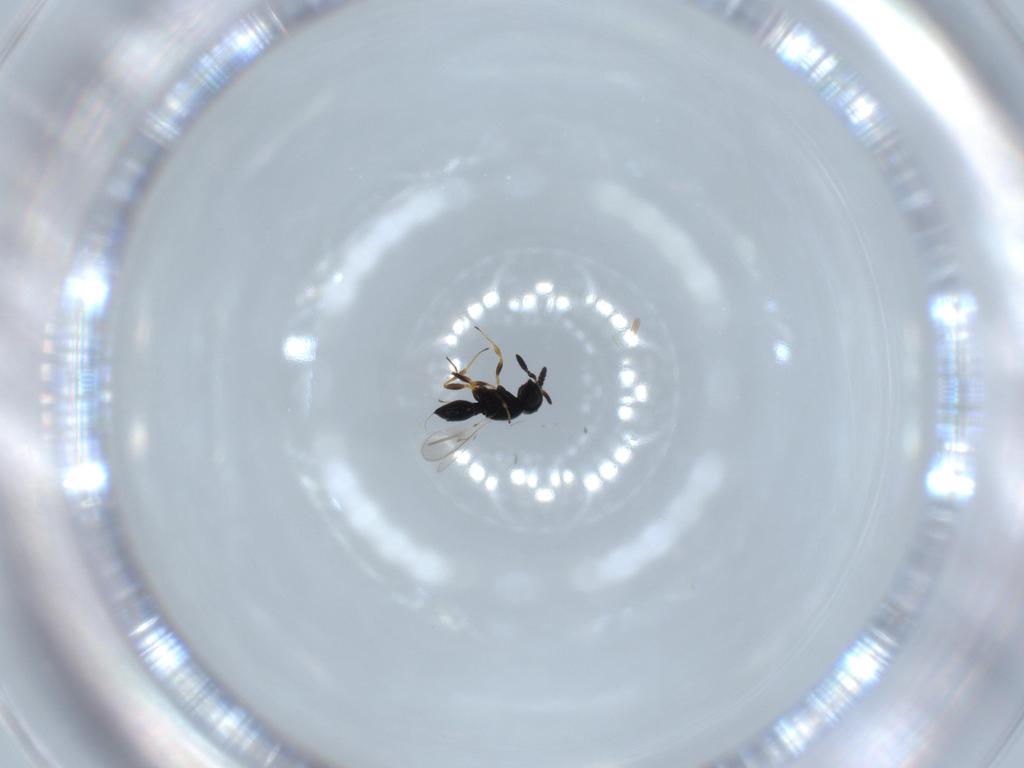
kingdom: Animalia
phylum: Arthropoda
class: Insecta
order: Hymenoptera
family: Scelionidae
